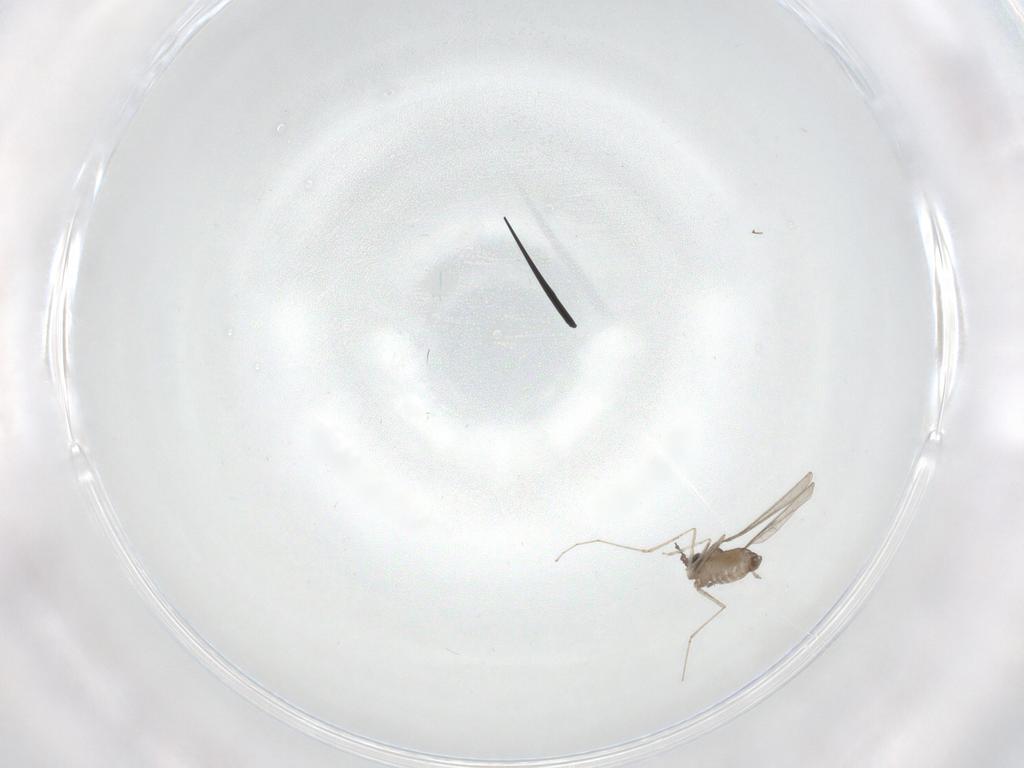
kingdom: Animalia
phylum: Arthropoda
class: Insecta
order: Diptera
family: Cecidomyiidae
